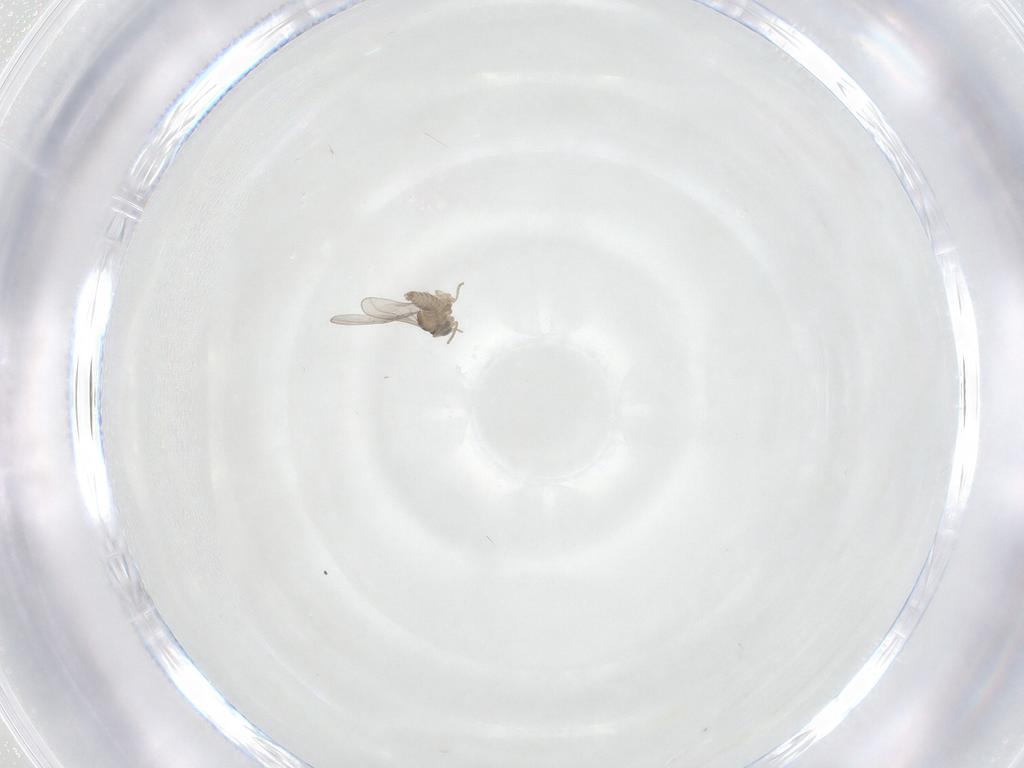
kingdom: Animalia
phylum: Arthropoda
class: Insecta
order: Diptera
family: Cecidomyiidae
